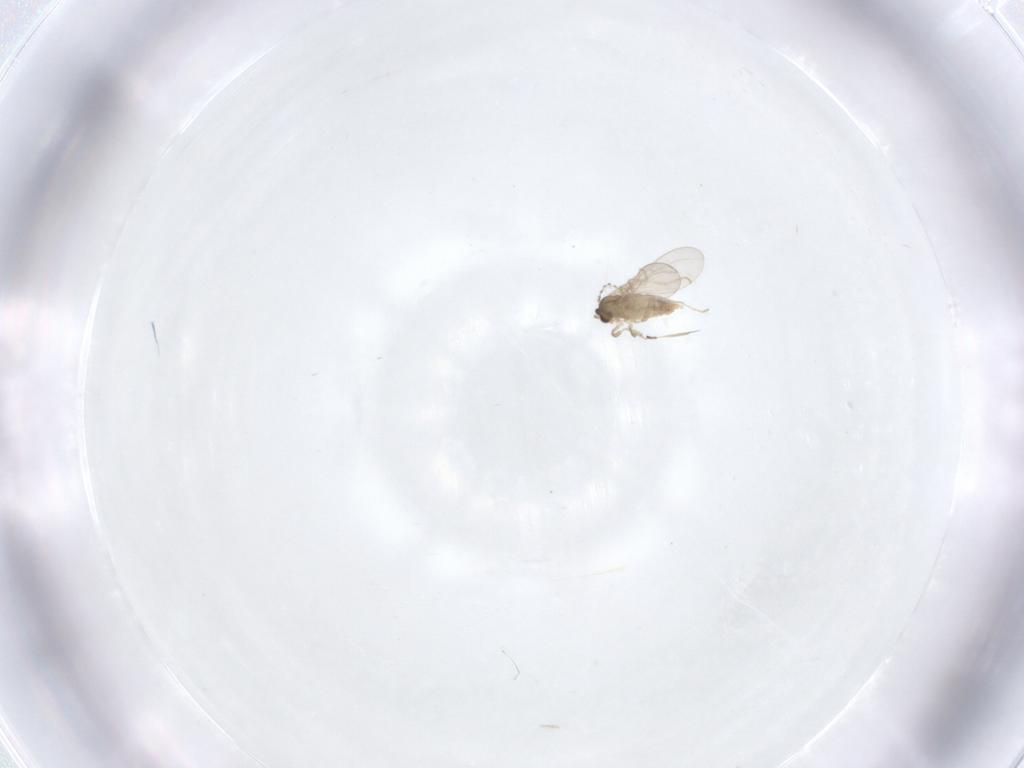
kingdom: Animalia
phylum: Arthropoda
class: Insecta
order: Diptera
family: Cecidomyiidae
